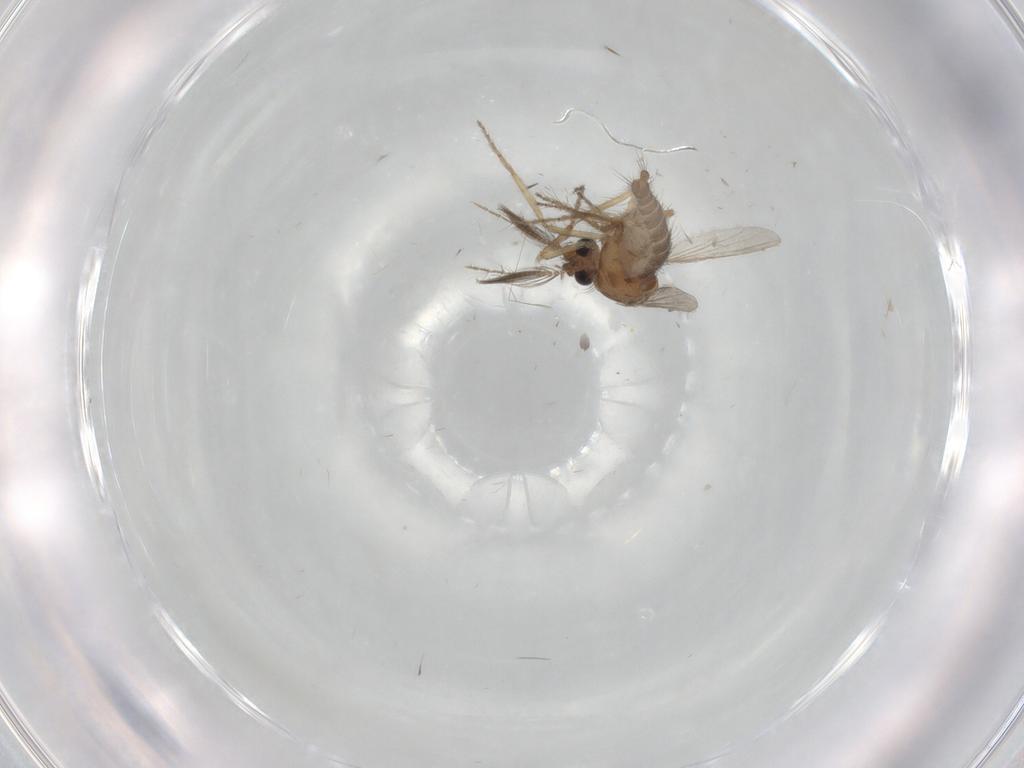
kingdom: Animalia
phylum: Arthropoda
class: Insecta
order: Diptera
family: Ceratopogonidae
